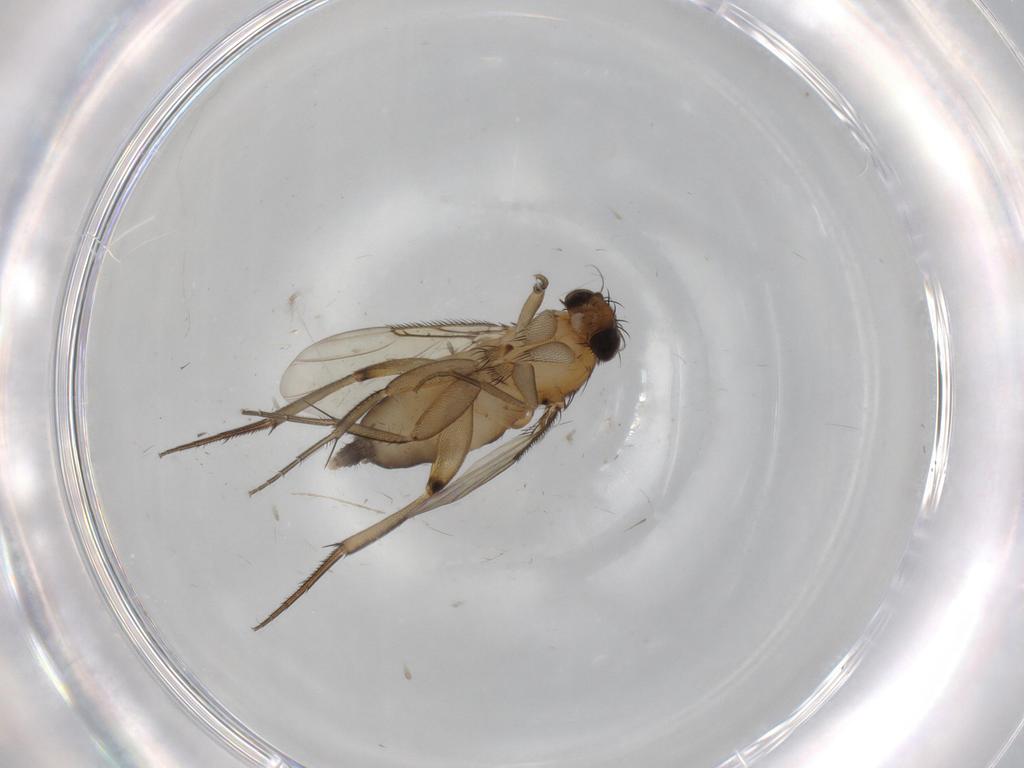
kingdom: Animalia
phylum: Arthropoda
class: Insecta
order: Diptera
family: Phoridae
